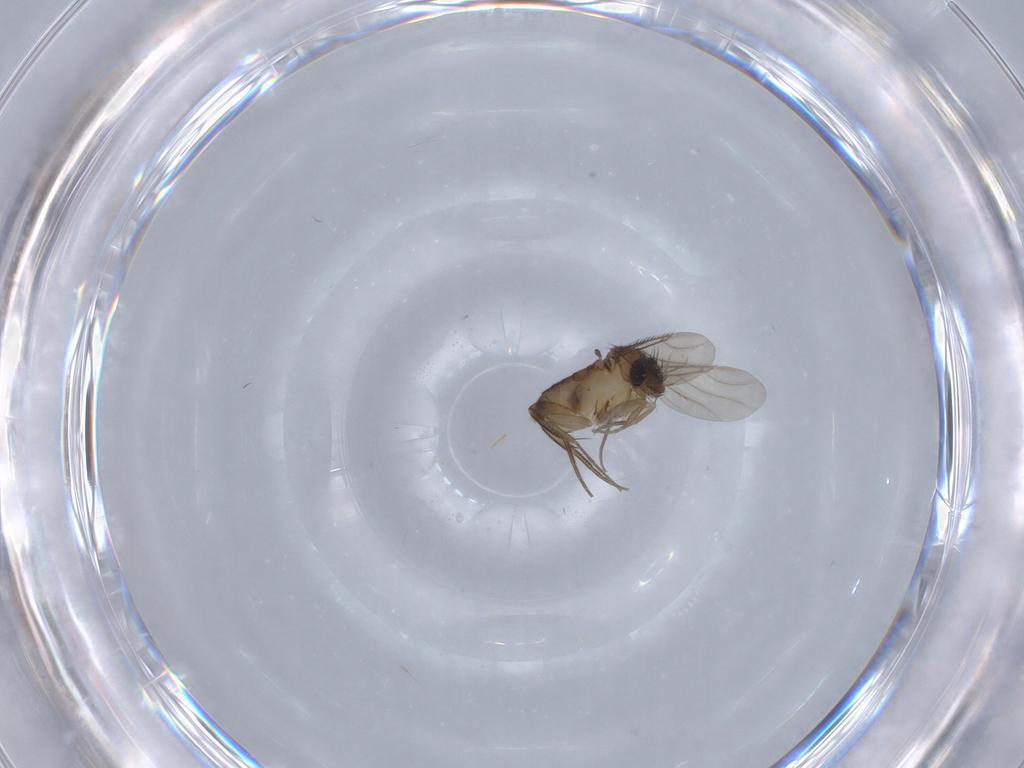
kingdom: Animalia
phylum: Arthropoda
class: Insecta
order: Diptera
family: Phoridae
